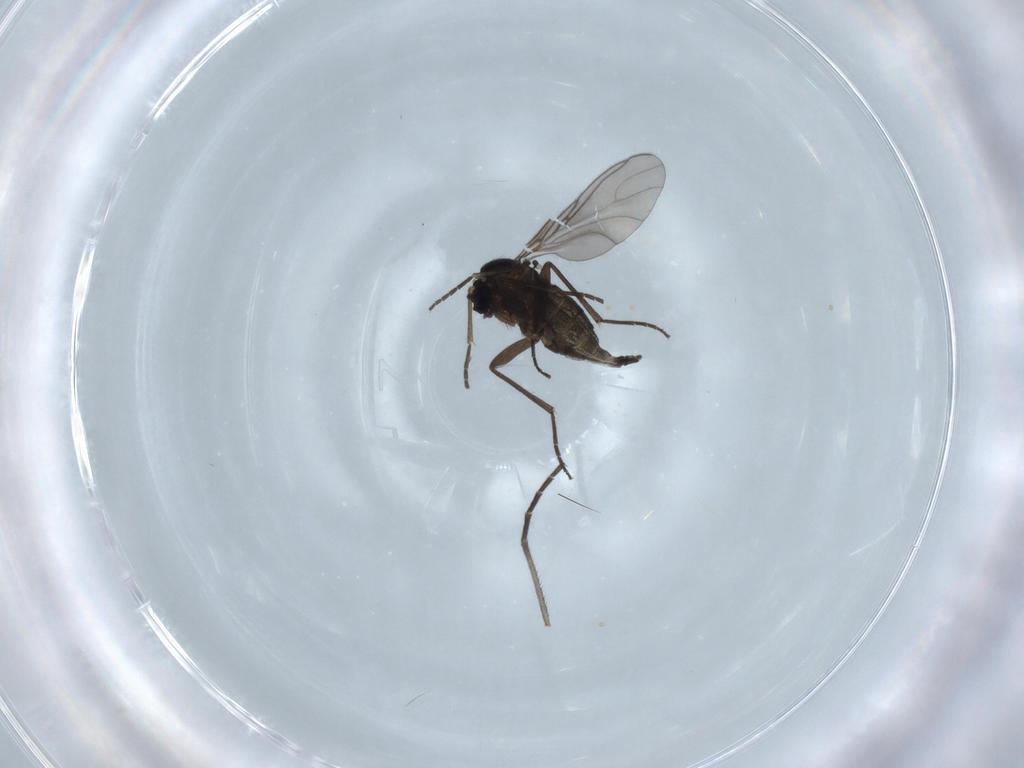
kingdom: Animalia
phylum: Arthropoda
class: Insecta
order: Diptera
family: Sciaridae
